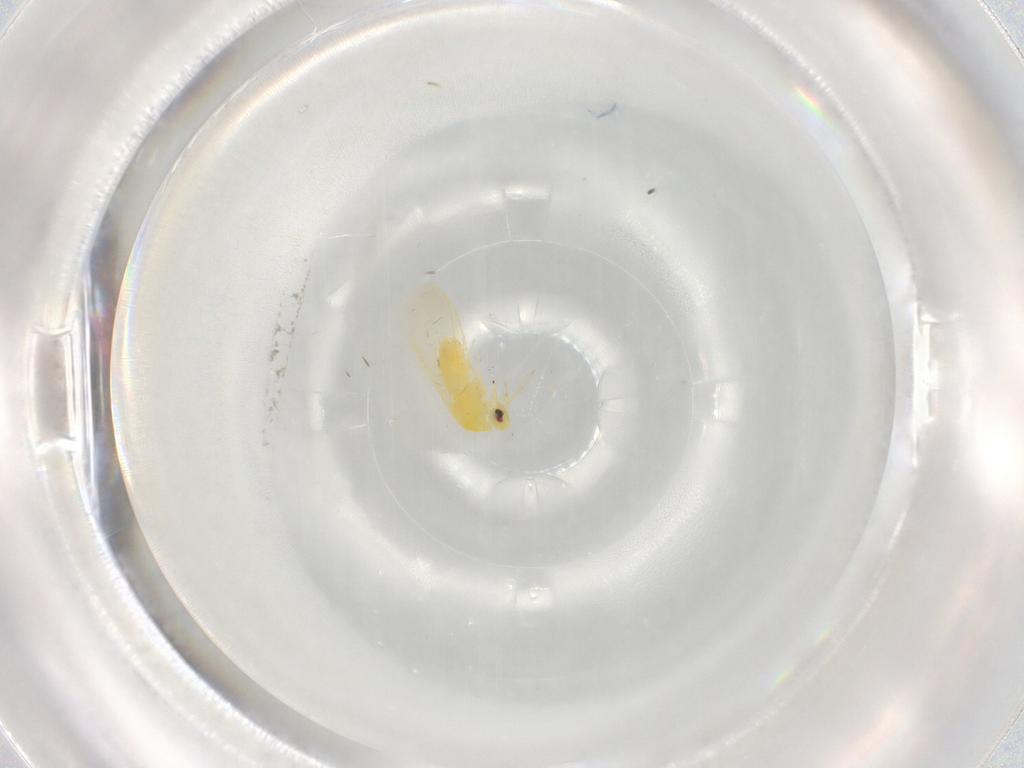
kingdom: Animalia
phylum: Arthropoda
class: Insecta
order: Hemiptera
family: Aleyrodidae
